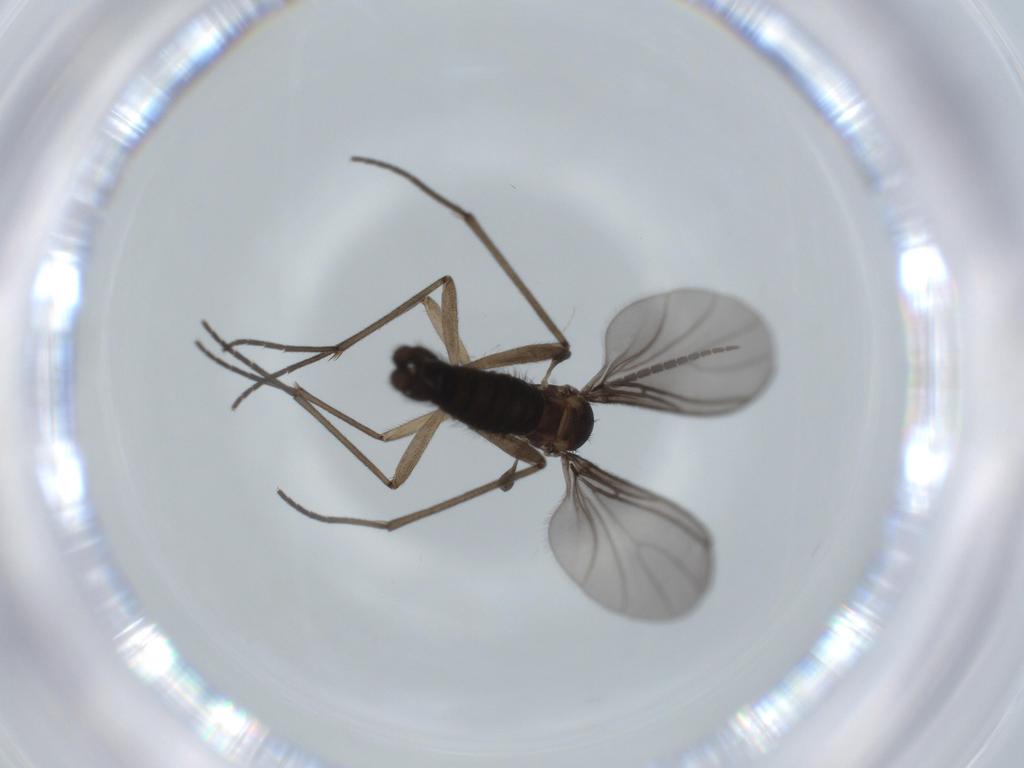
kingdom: Animalia
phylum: Arthropoda
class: Insecta
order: Diptera
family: Sciaridae
